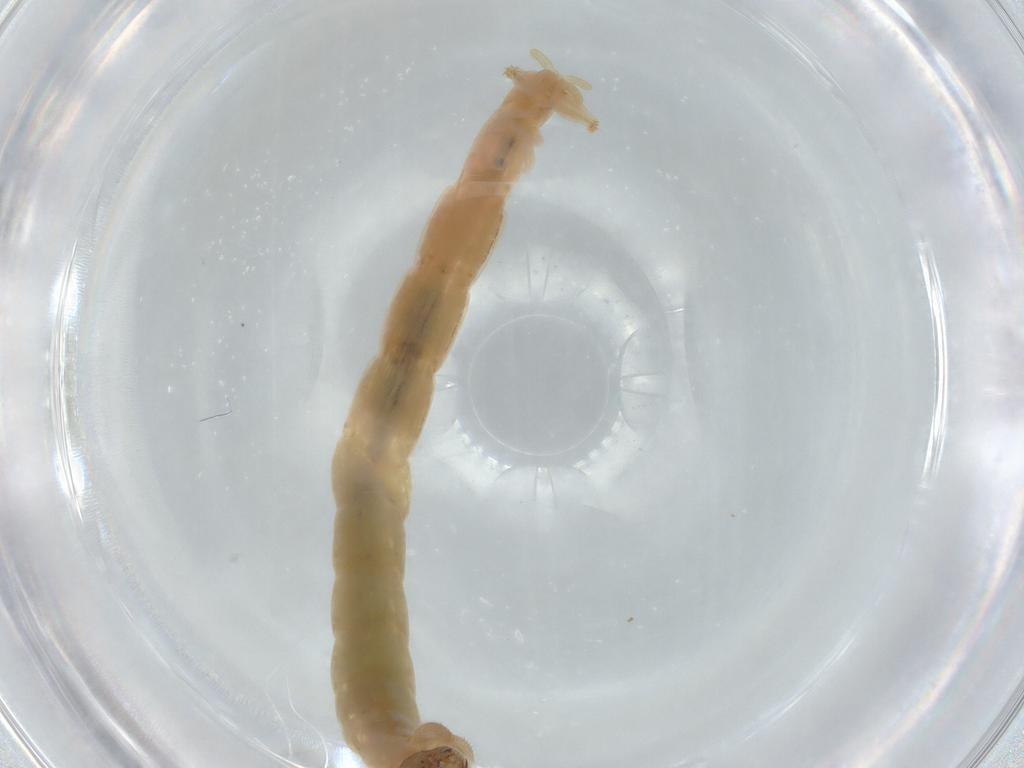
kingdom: Animalia
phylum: Arthropoda
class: Insecta
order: Diptera
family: Chironomidae
